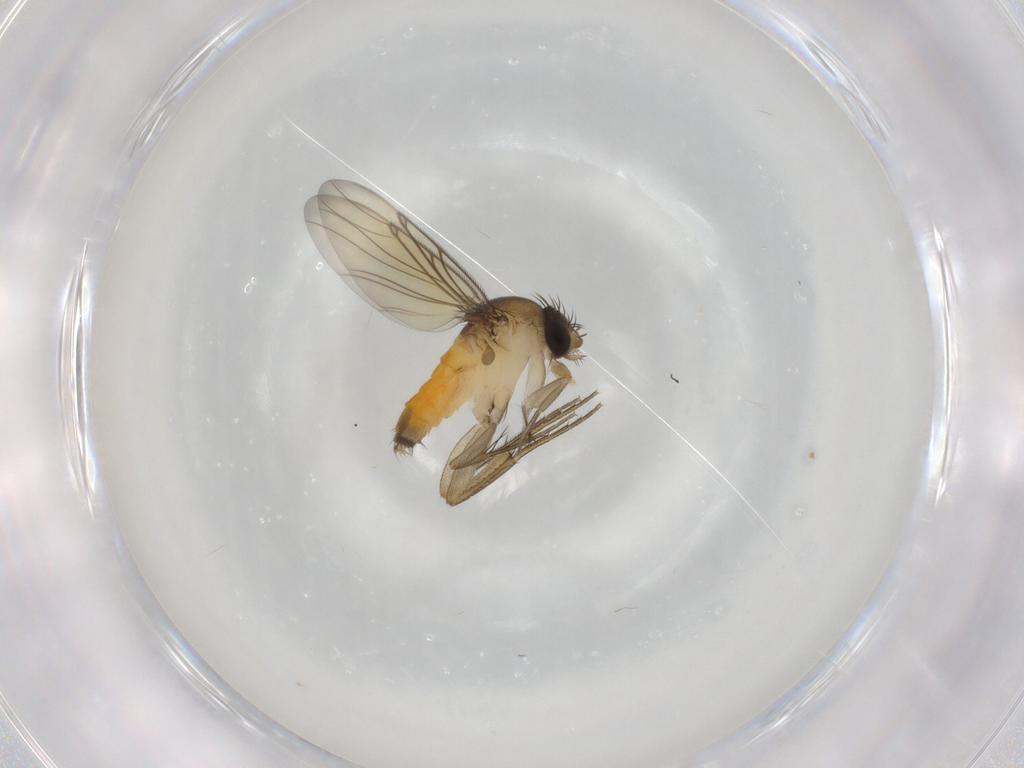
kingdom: Animalia
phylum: Arthropoda
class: Insecta
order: Diptera
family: Phoridae
